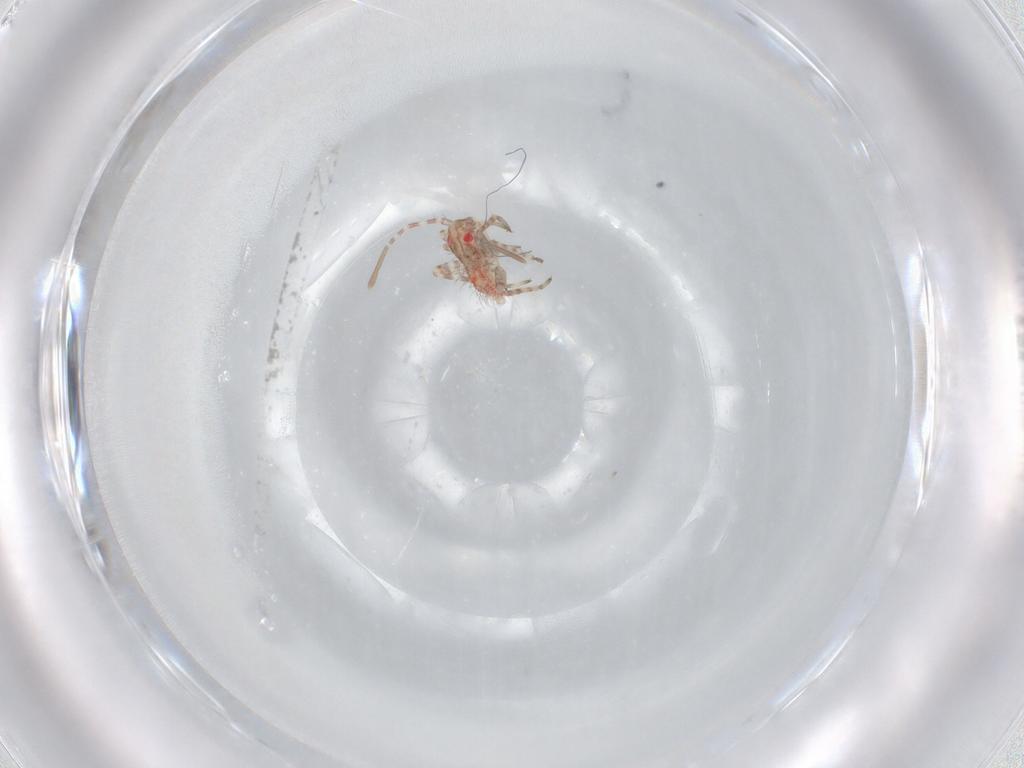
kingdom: Animalia
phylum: Arthropoda
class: Insecta
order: Hemiptera
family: Miridae
